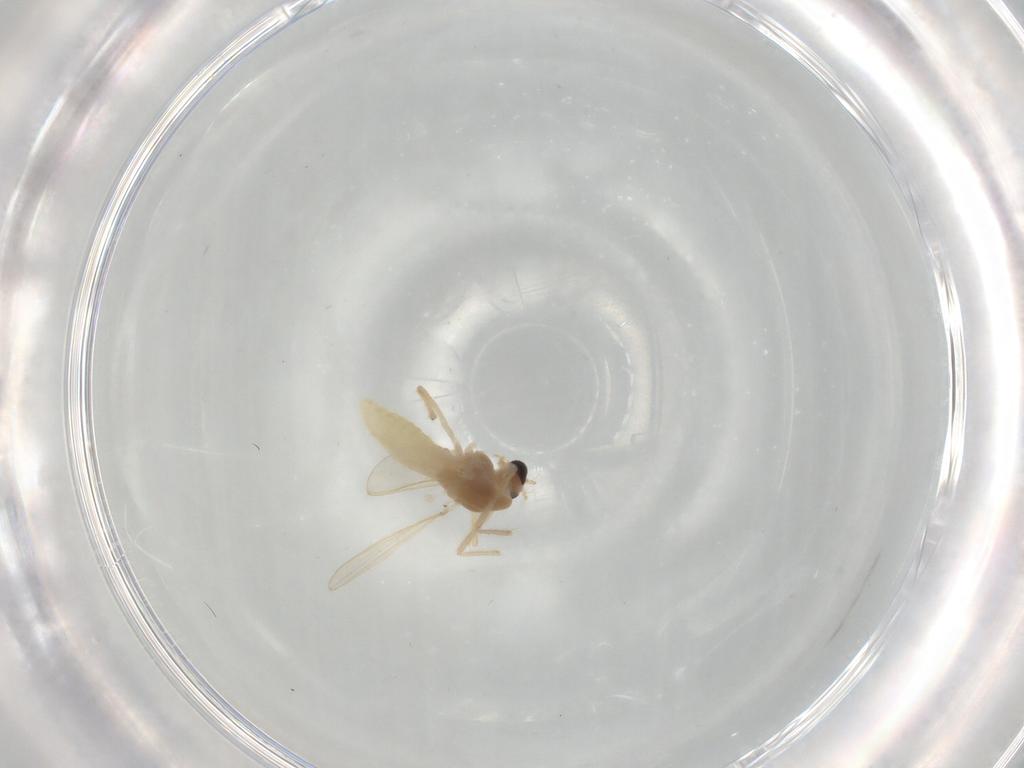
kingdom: Animalia
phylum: Arthropoda
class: Insecta
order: Diptera
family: Chironomidae
